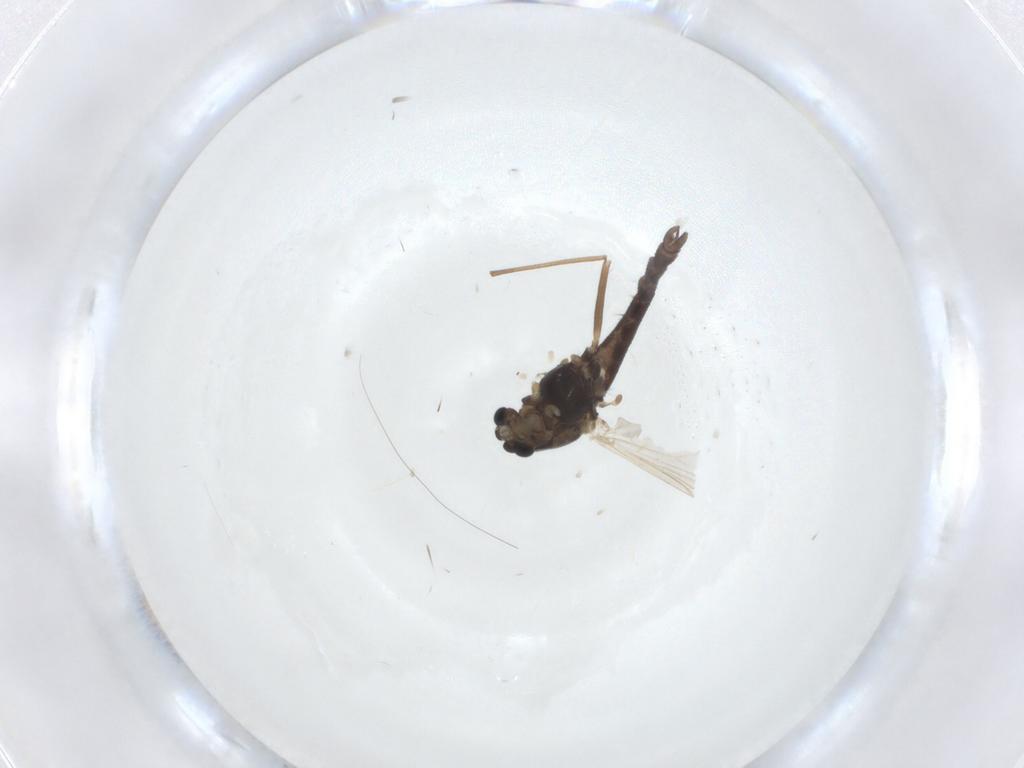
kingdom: Animalia
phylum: Arthropoda
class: Insecta
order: Diptera
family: Chironomidae
